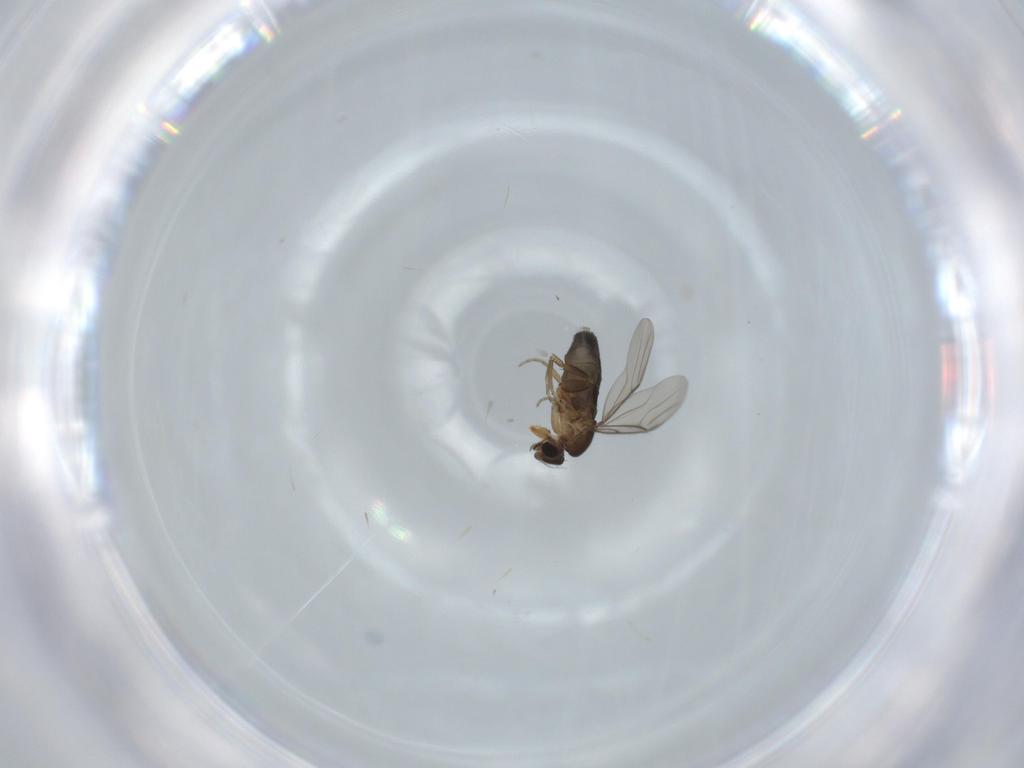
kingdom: Animalia
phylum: Arthropoda
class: Insecta
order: Diptera
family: Phoridae
